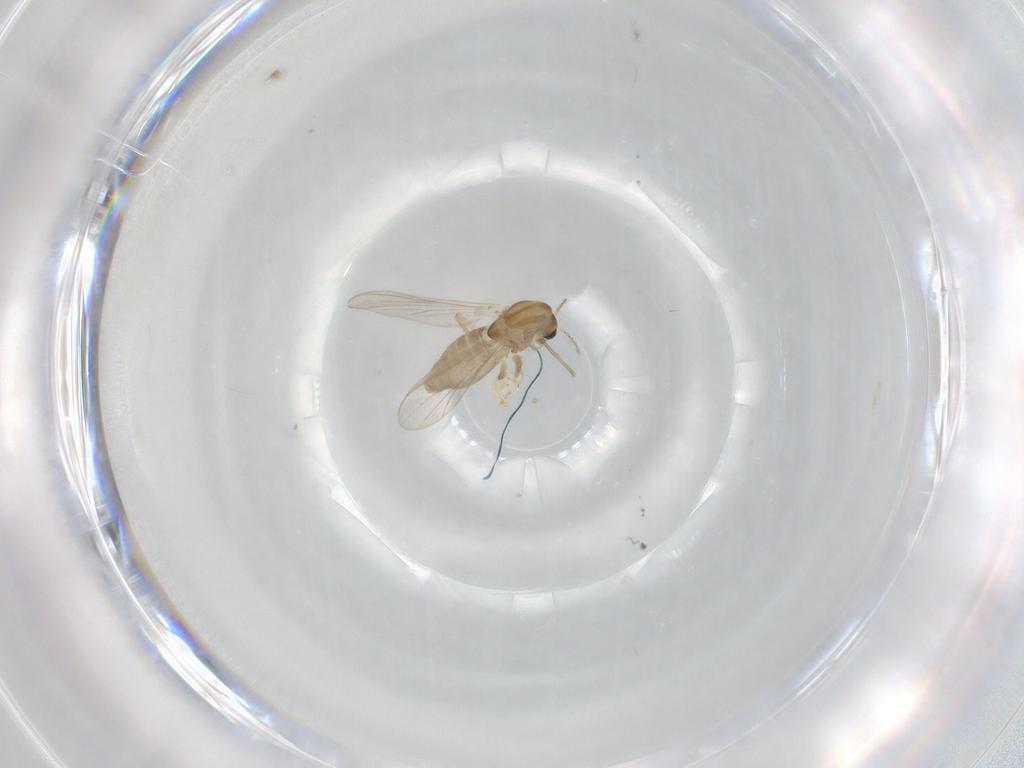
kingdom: Animalia
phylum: Arthropoda
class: Insecta
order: Diptera
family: Chironomidae
